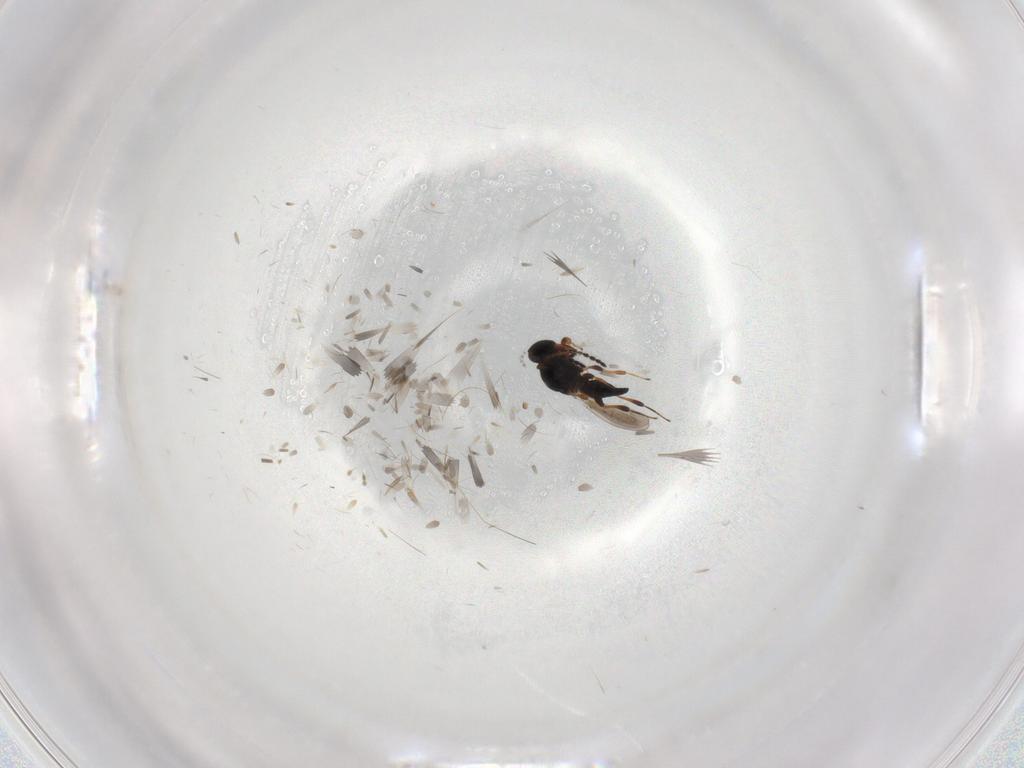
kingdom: Animalia
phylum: Arthropoda
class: Insecta
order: Hymenoptera
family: Platygastridae
